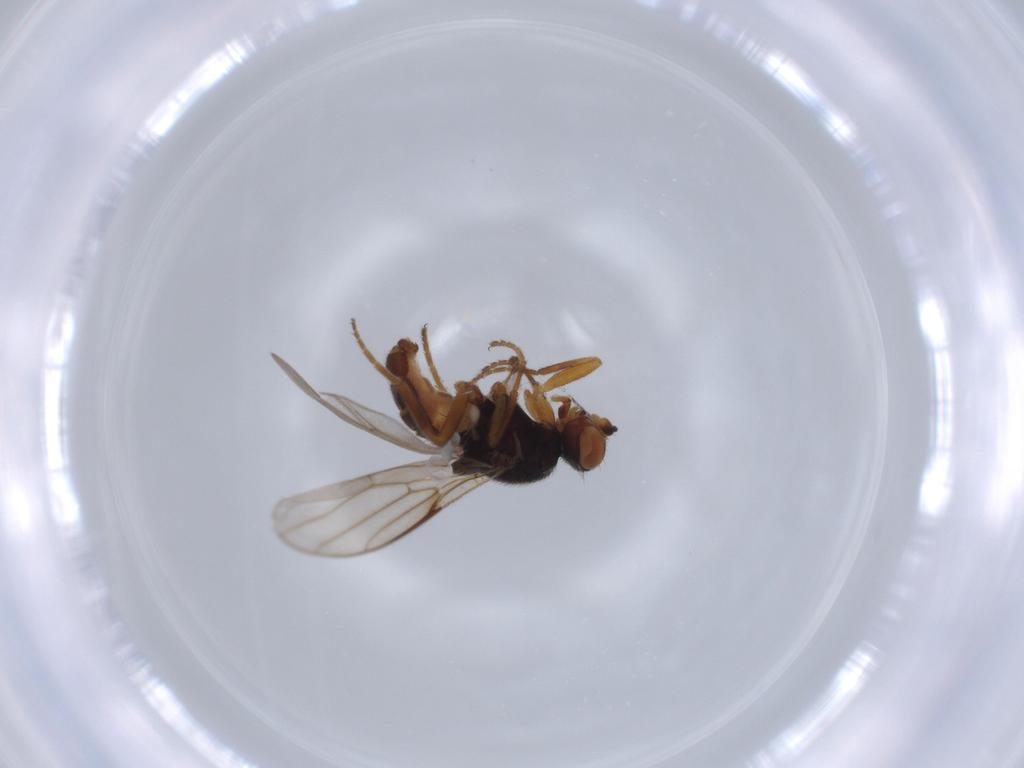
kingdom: Animalia
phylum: Arthropoda
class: Insecta
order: Diptera
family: Chloropidae
